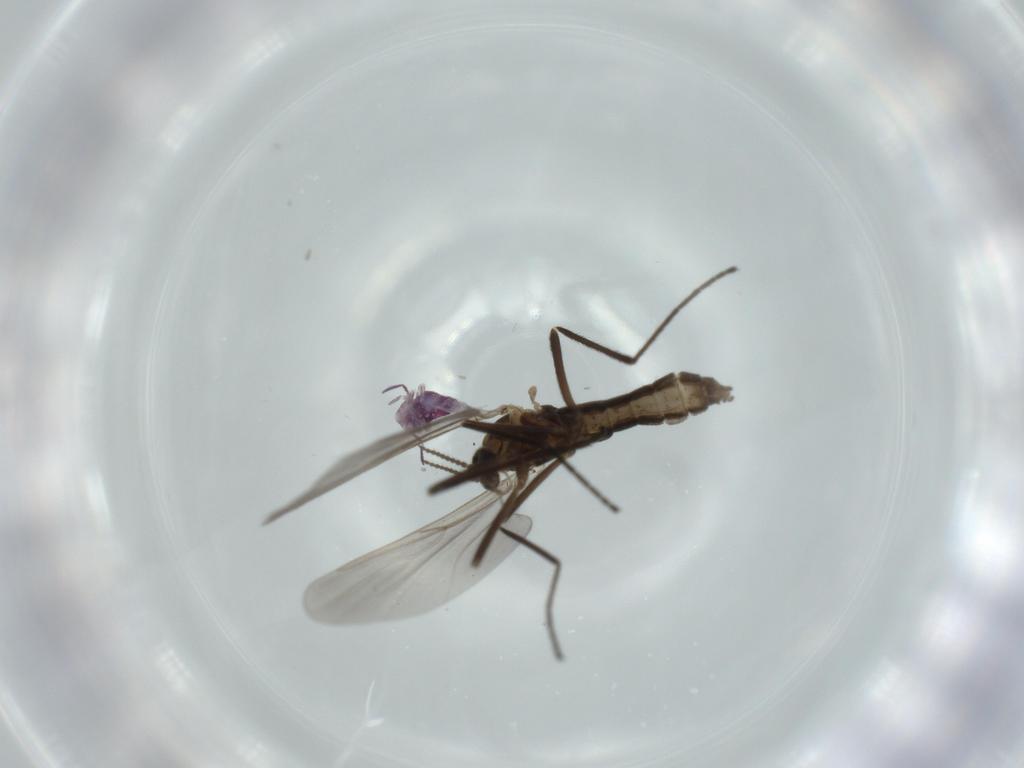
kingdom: Animalia
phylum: Arthropoda
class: Insecta
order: Diptera
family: Cecidomyiidae
